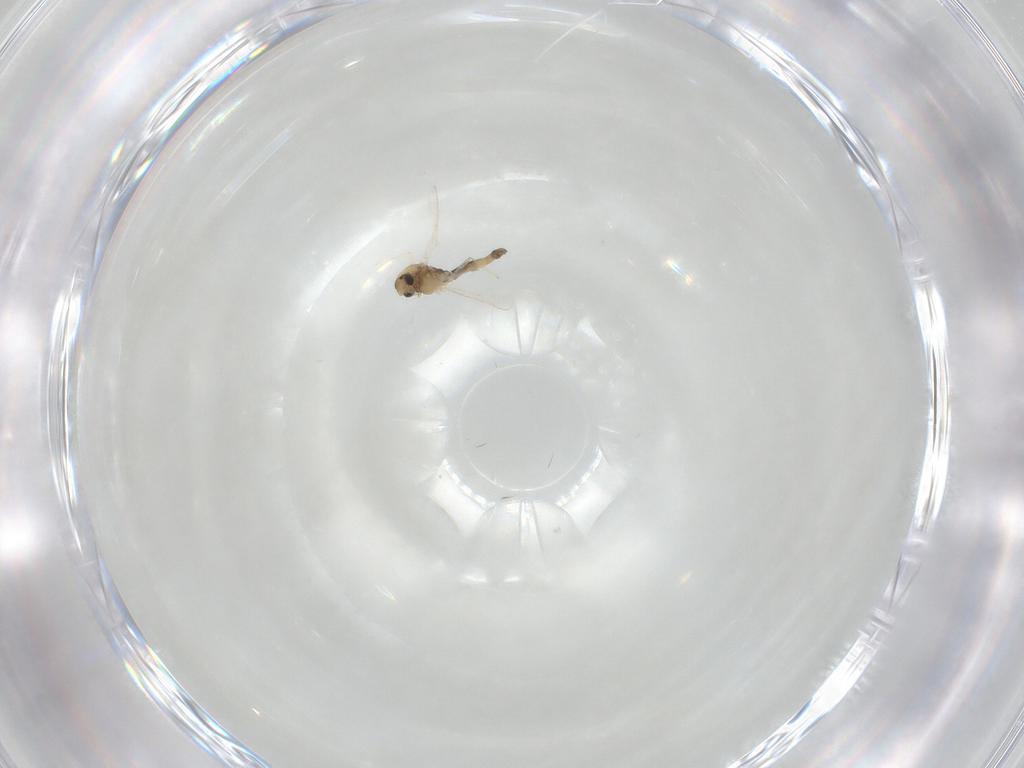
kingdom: Animalia
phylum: Arthropoda
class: Insecta
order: Diptera
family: Chironomidae
